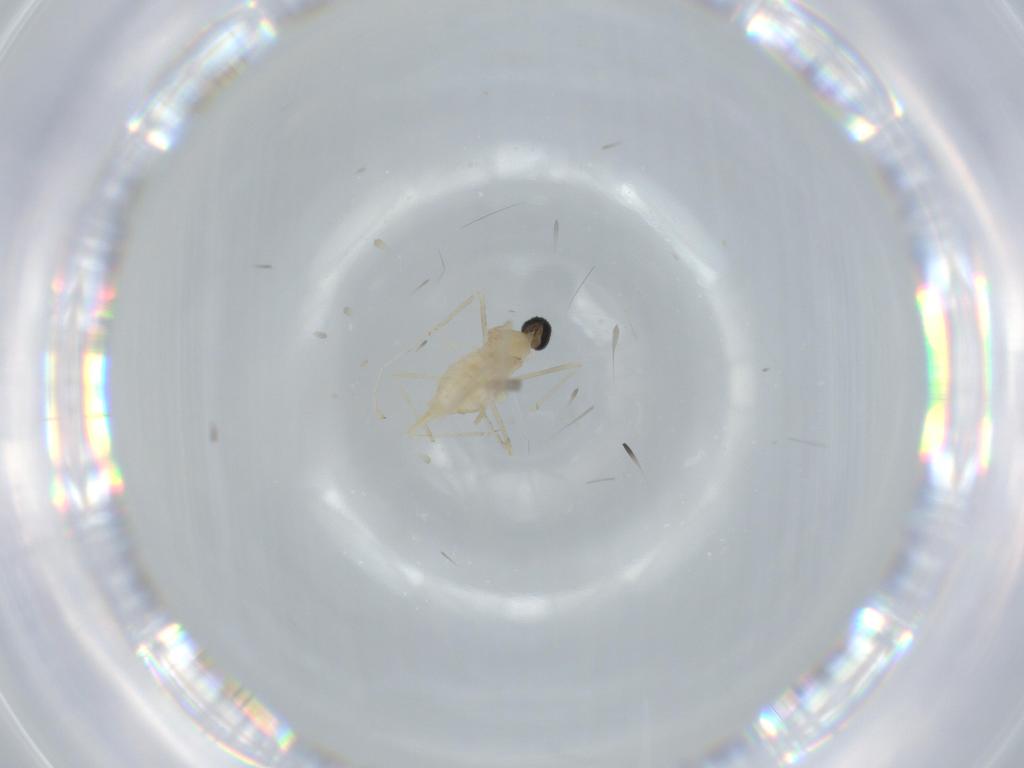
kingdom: Animalia
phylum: Arthropoda
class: Insecta
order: Diptera
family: Cecidomyiidae
